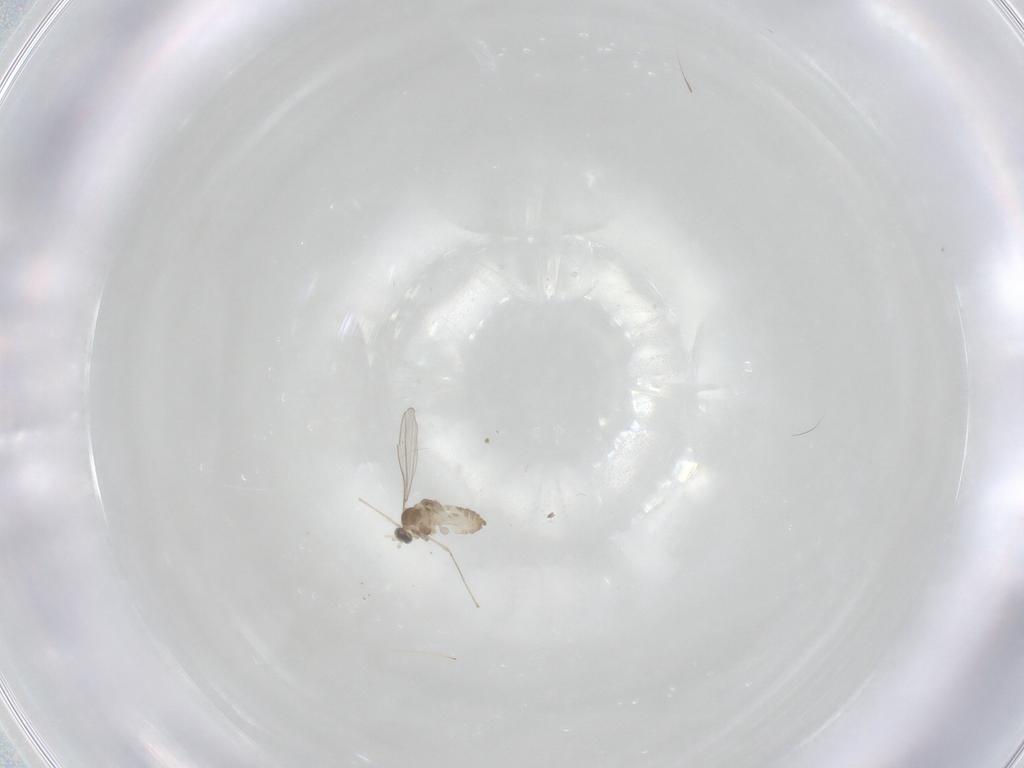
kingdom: Animalia
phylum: Arthropoda
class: Insecta
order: Diptera
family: Cecidomyiidae
